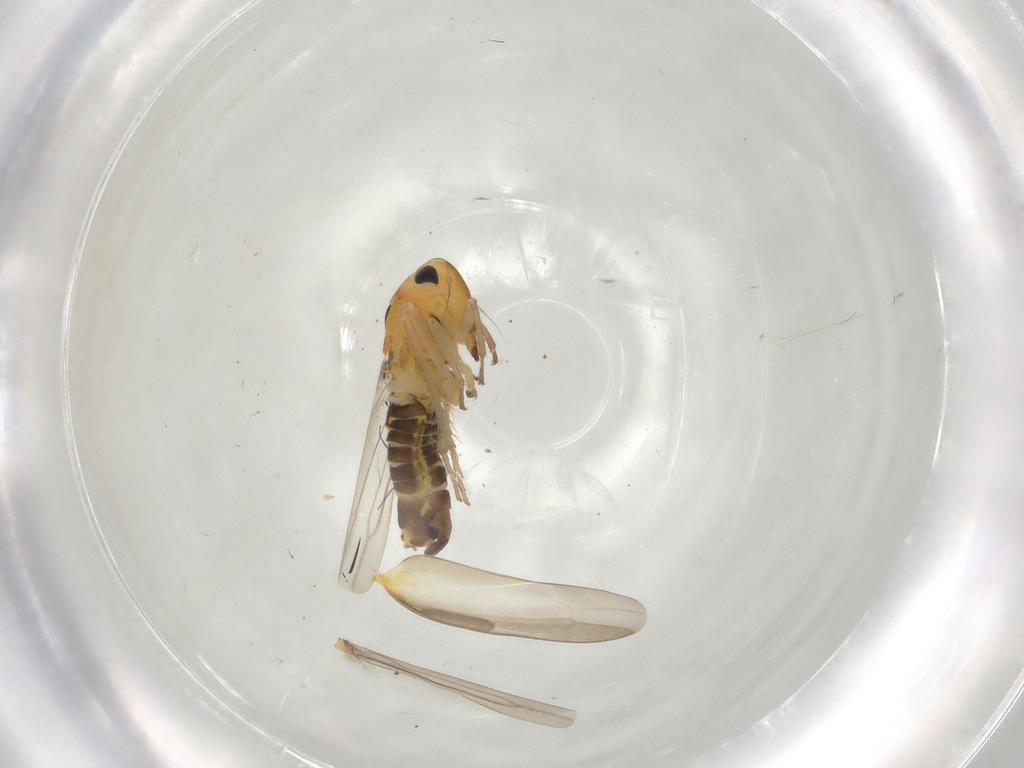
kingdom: Animalia
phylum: Arthropoda
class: Insecta
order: Hemiptera
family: Cicadellidae
